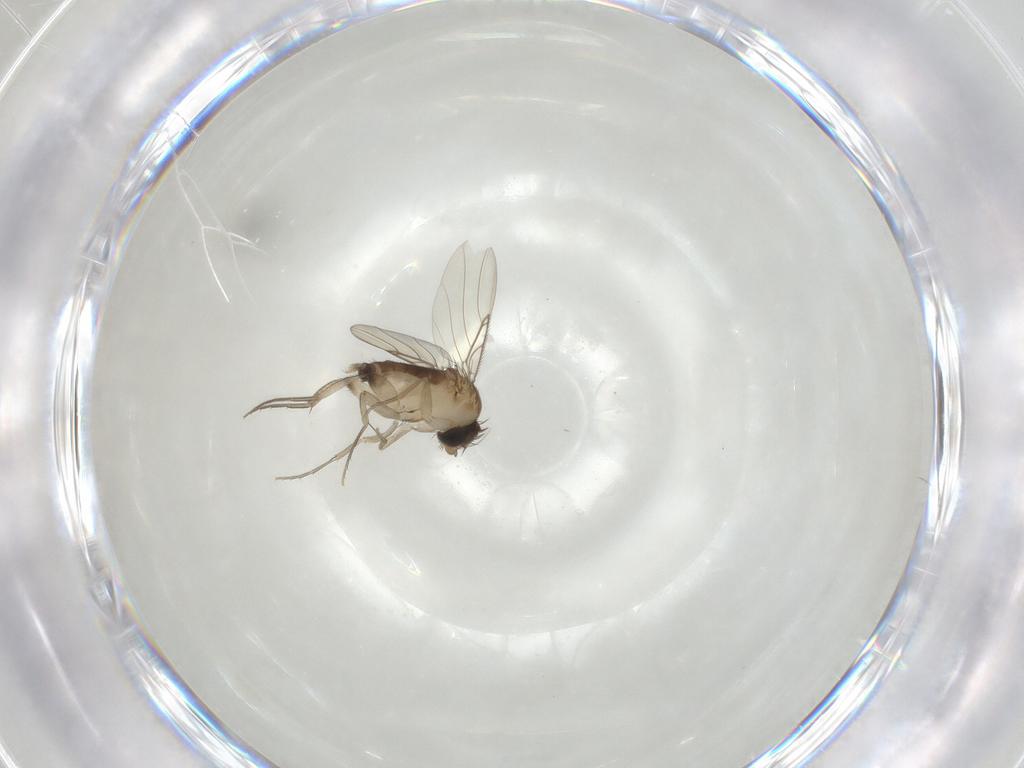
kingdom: Animalia
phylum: Arthropoda
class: Insecta
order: Diptera
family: Phoridae
